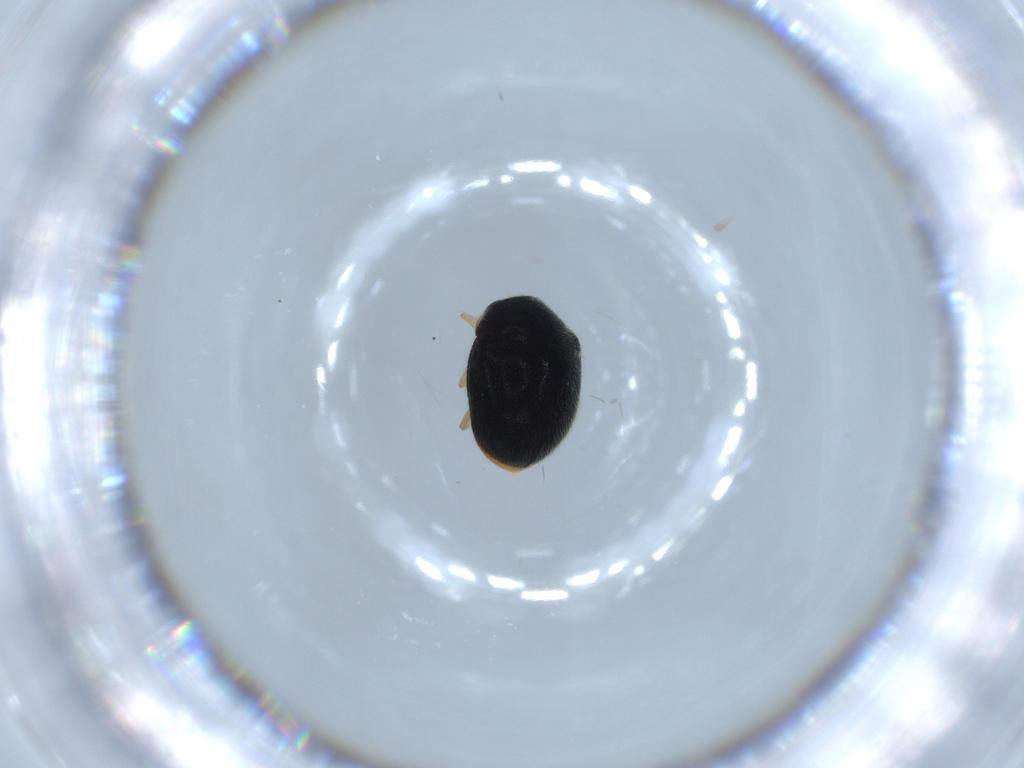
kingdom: Animalia
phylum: Arthropoda
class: Insecta
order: Coleoptera
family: Coccinellidae
